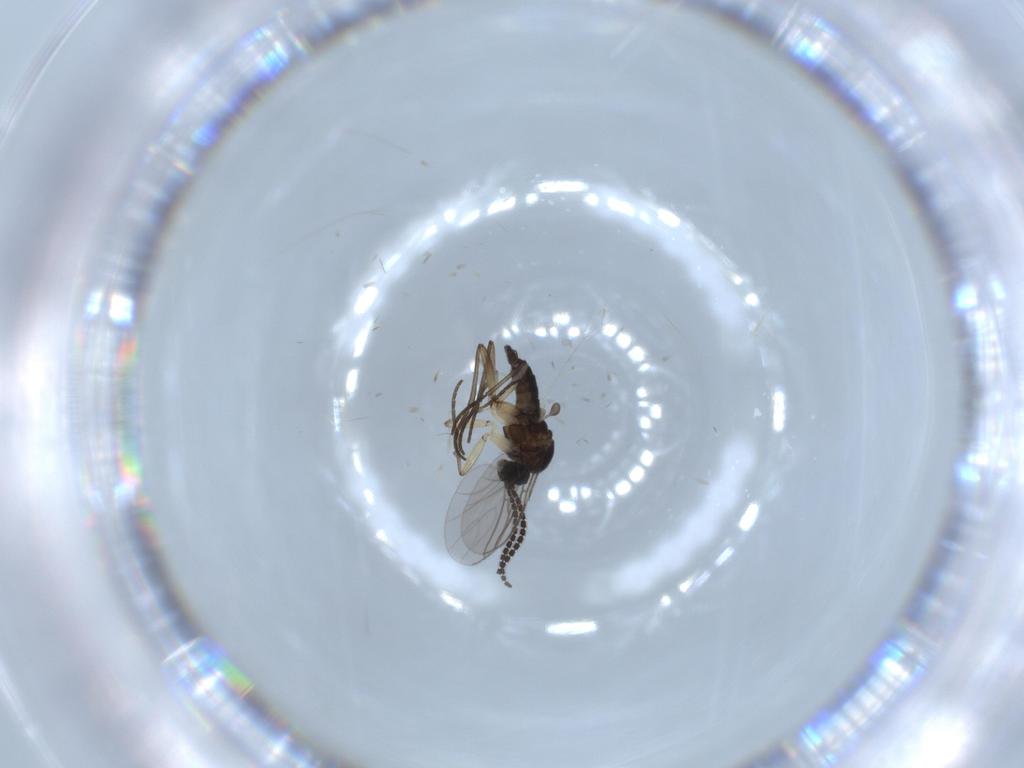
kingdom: Animalia
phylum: Arthropoda
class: Insecta
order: Diptera
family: Sciaridae
